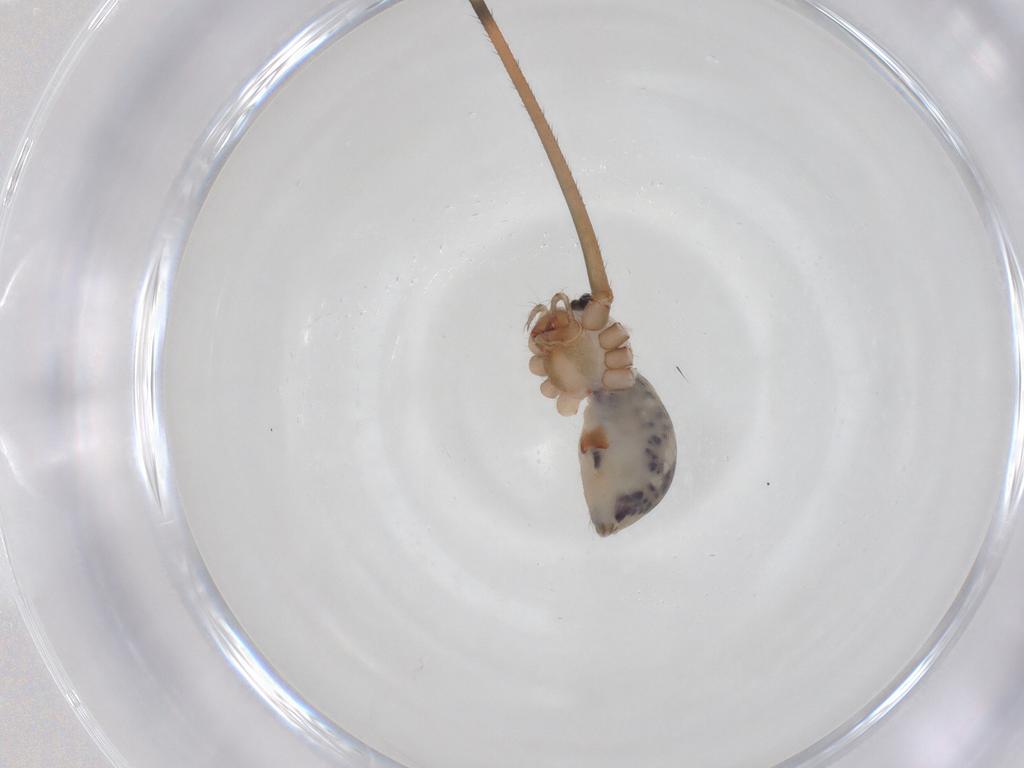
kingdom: Animalia
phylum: Arthropoda
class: Arachnida
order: Araneae
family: Pholcidae
